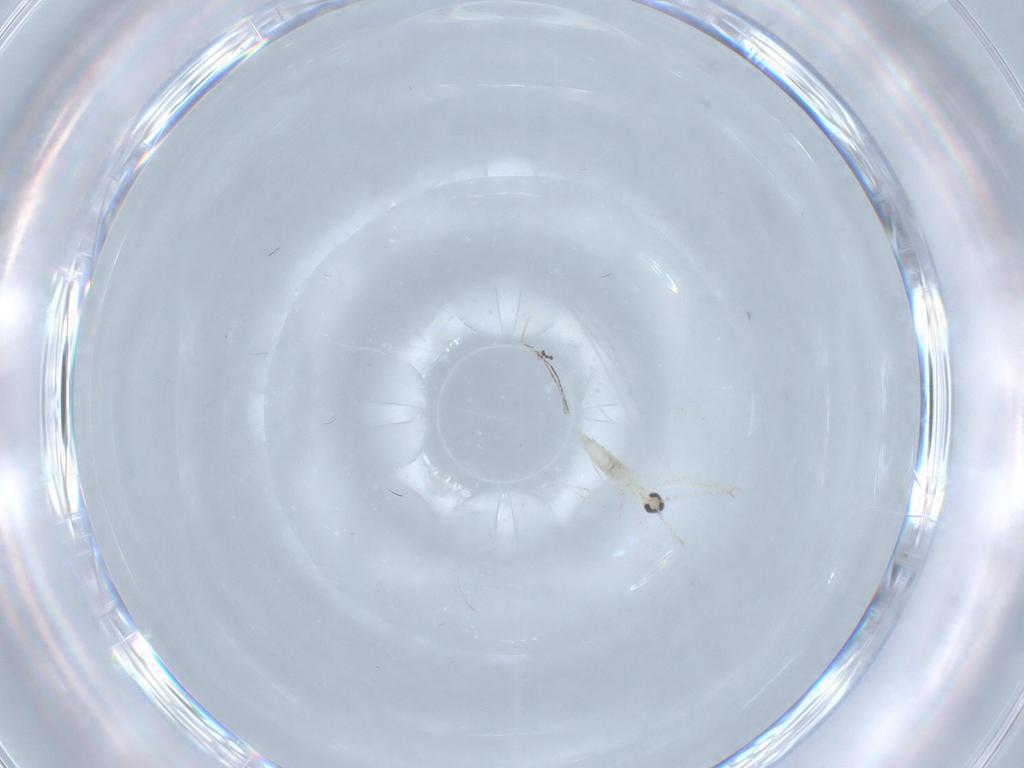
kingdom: Animalia
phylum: Arthropoda
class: Insecta
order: Diptera
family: Cecidomyiidae
